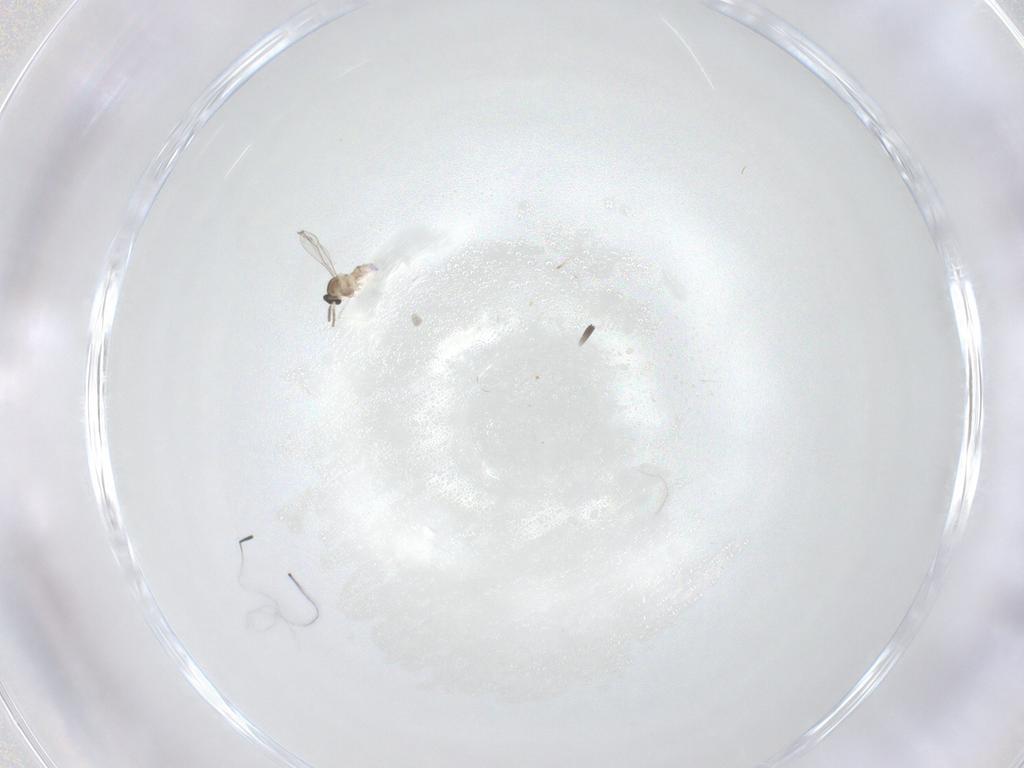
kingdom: Animalia
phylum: Arthropoda
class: Insecta
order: Diptera
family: Cecidomyiidae
